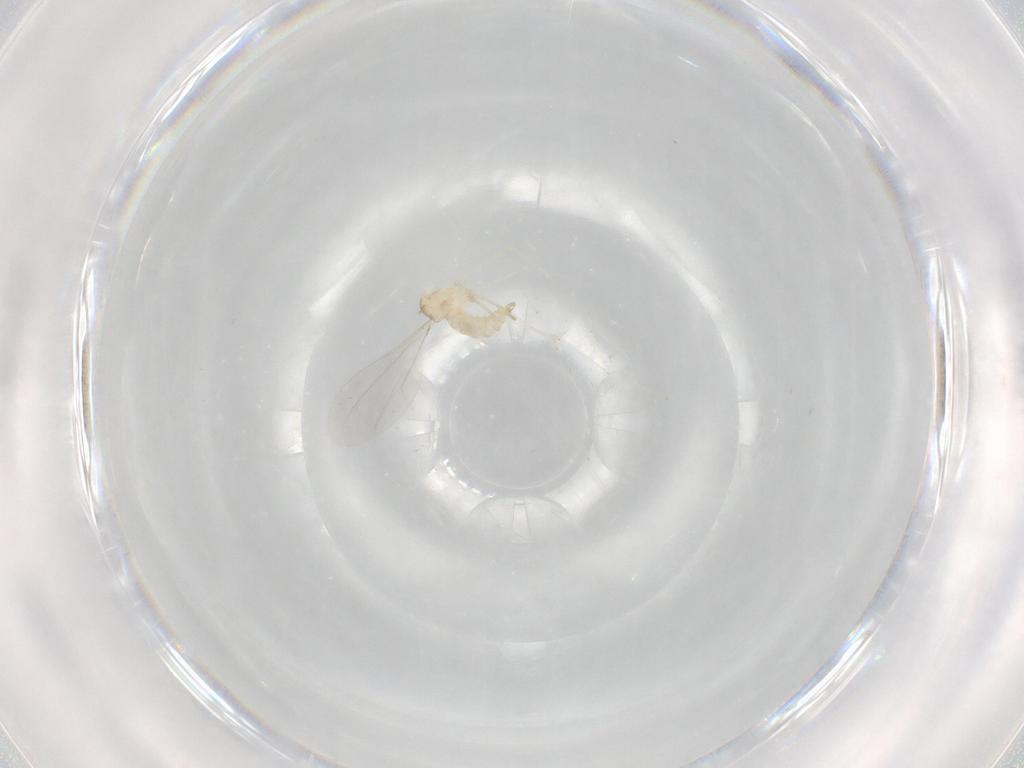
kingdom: Animalia
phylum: Arthropoda
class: Insecta
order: Diptera
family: Cecidomyiidae
